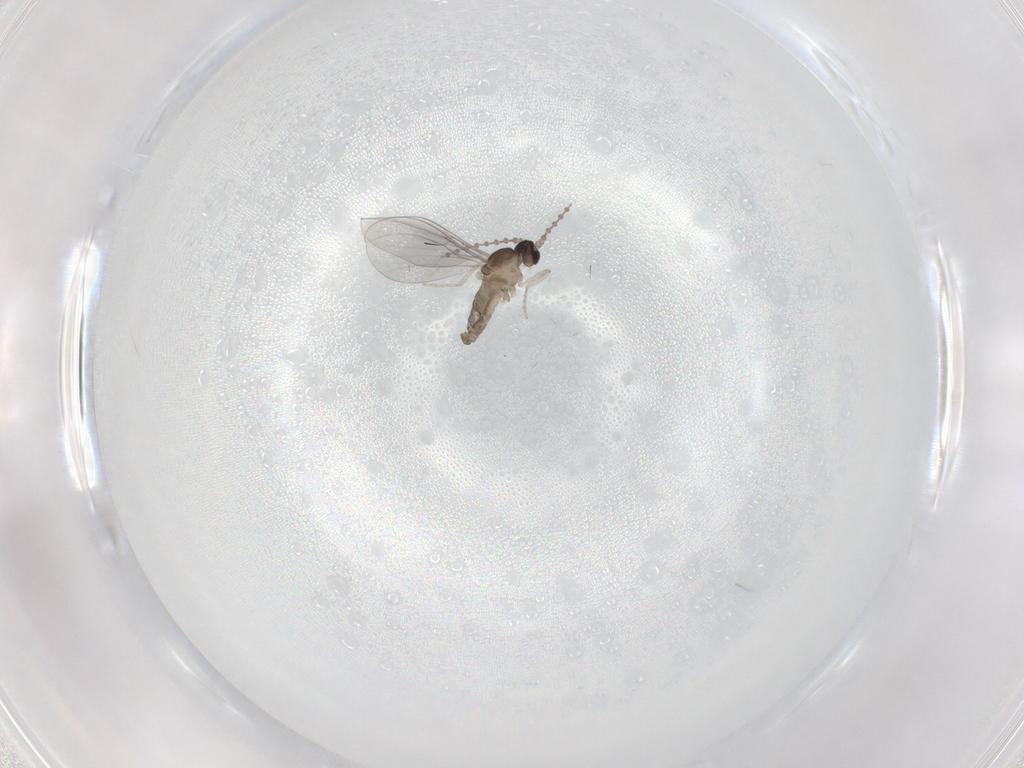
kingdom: Animalia
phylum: Arthropoda
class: Insecta
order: Diptera
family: Cecidomyiidae
